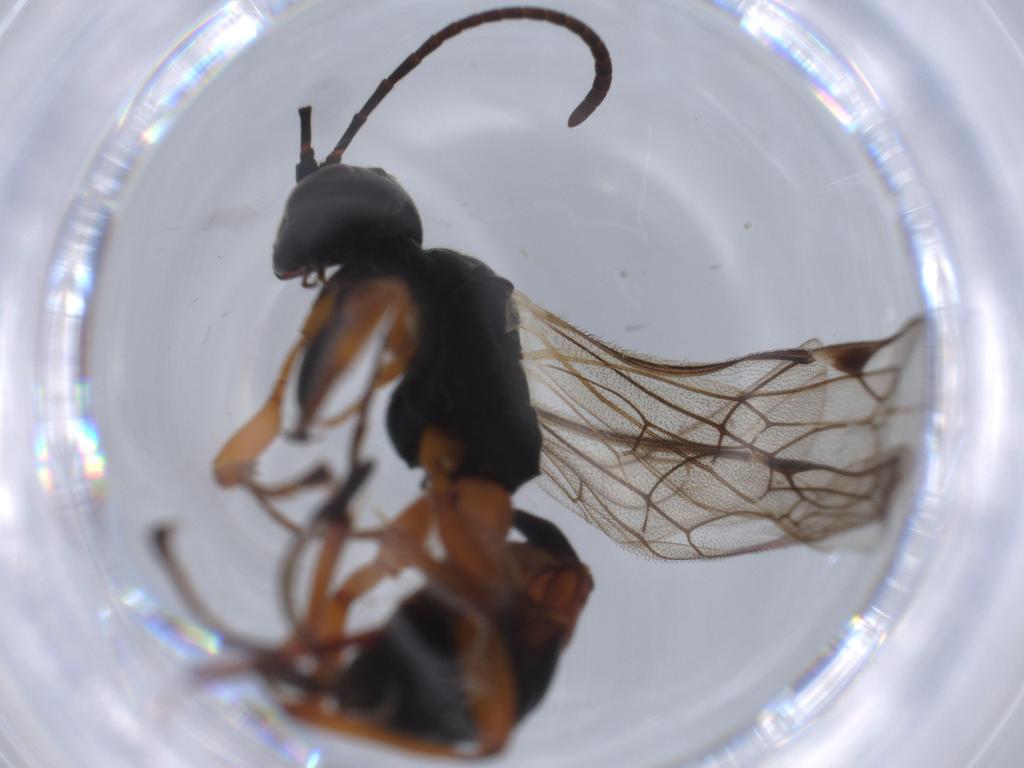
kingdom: Animalia
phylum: Arthropoda
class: Insecta
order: Hymenoptera
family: Ichneumonidae
